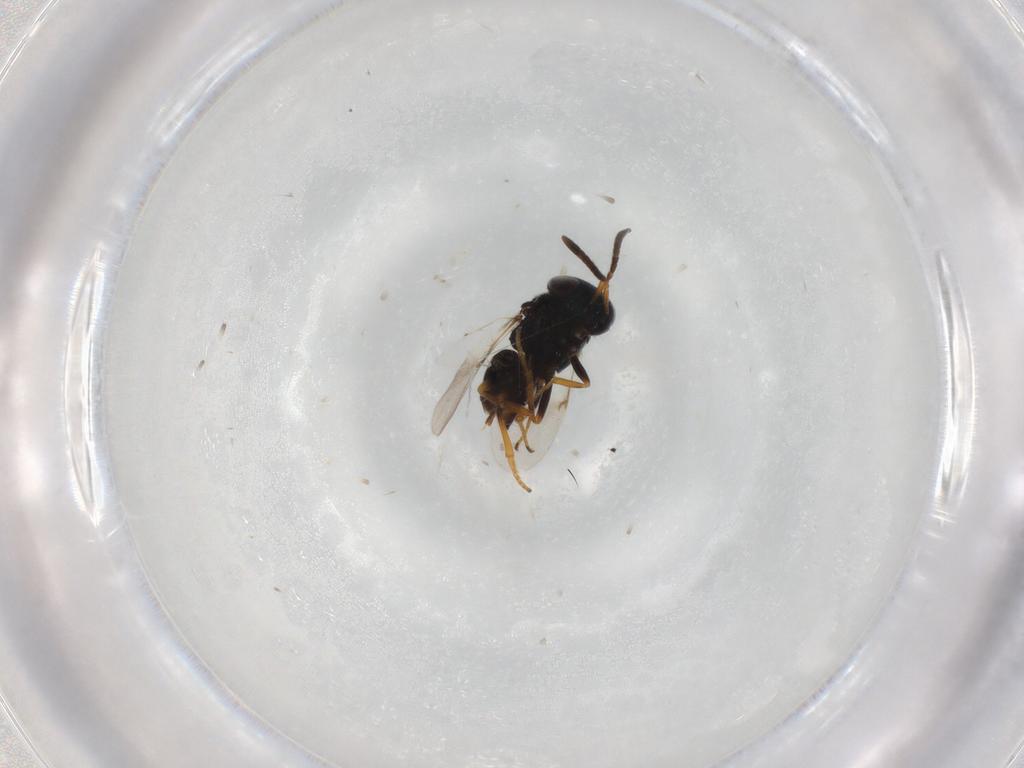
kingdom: Animalia
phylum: Arthropoda
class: Insecta
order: Hymenoptera
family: Encyrtidae
